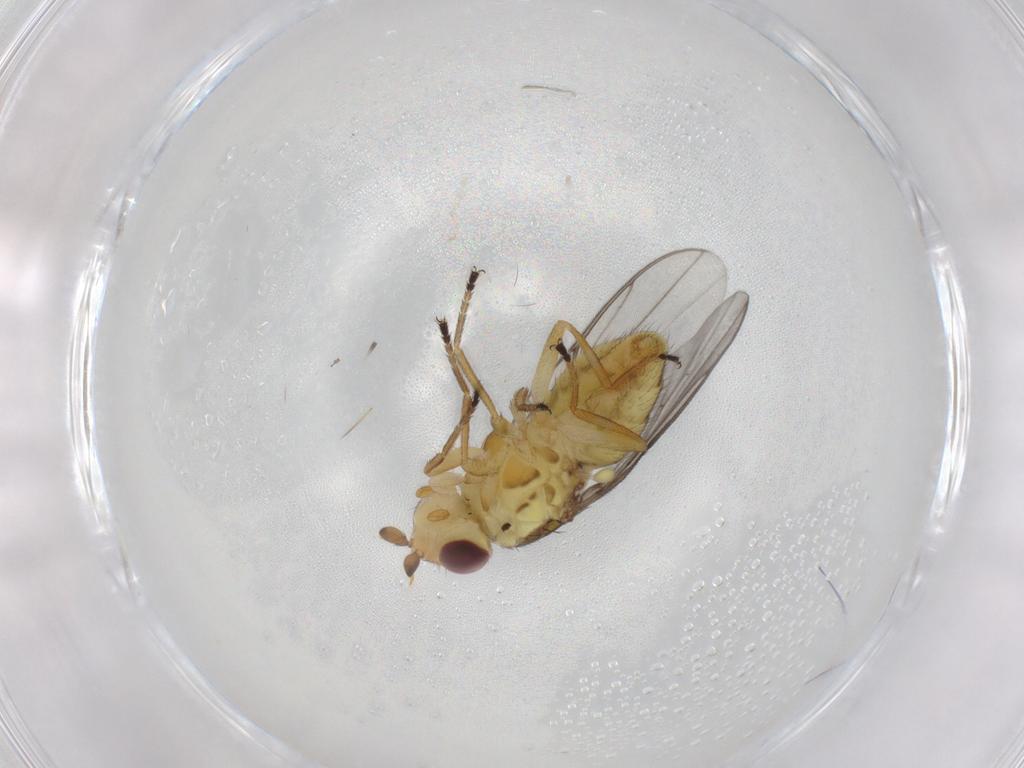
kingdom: Animalia
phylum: Arthropoda
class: Insecta
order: Diptera
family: Chloropidae
